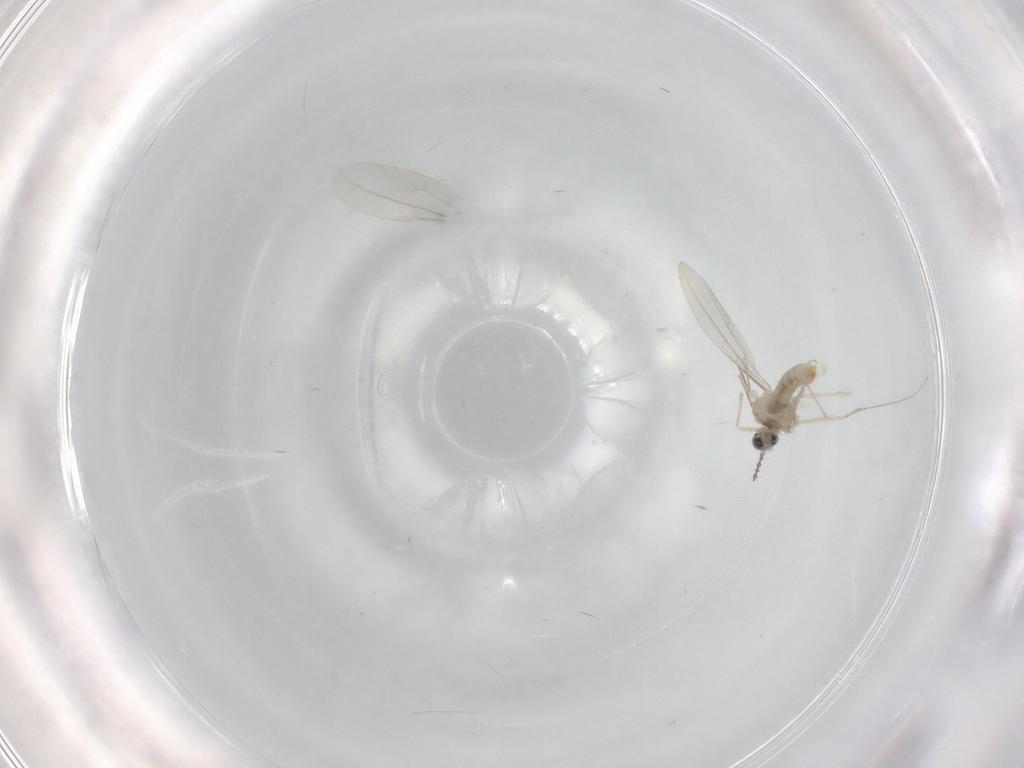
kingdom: Animalia
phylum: Arthropoda
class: Insecta
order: Diptera
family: Cecidomyiidae
